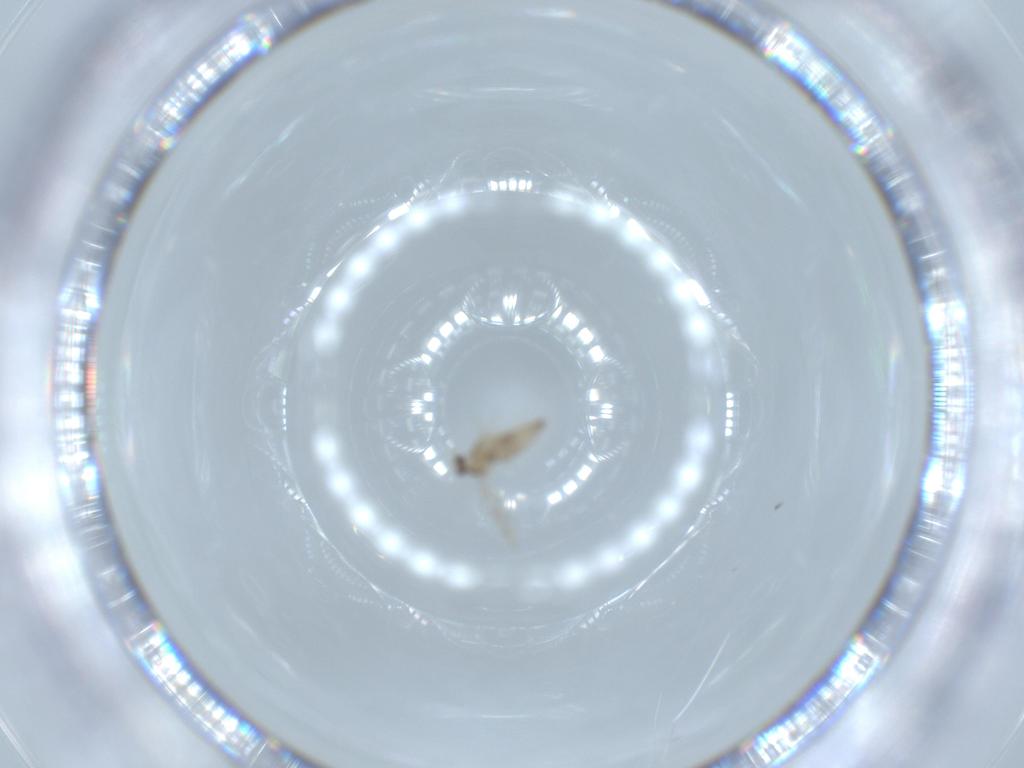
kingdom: Animalia
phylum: Arthropoda
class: Insecta
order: Diptera
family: Cecidomyiidae
